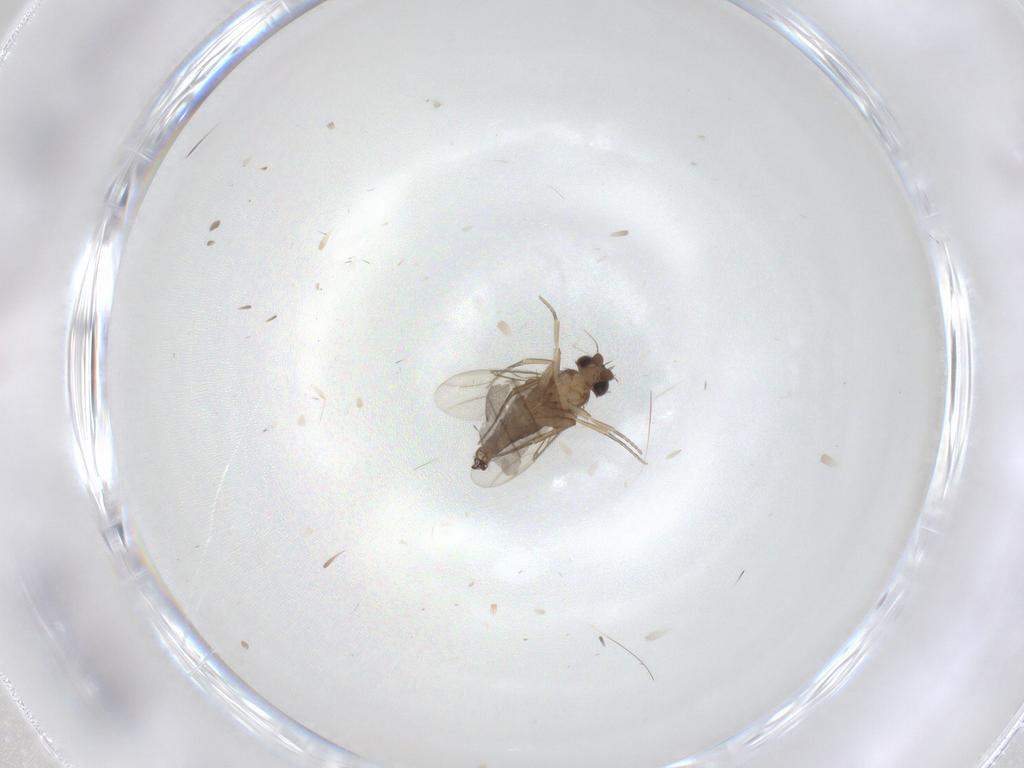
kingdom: Animalia
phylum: Arthropoda
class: Insecta
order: Diptera
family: Phoridae
